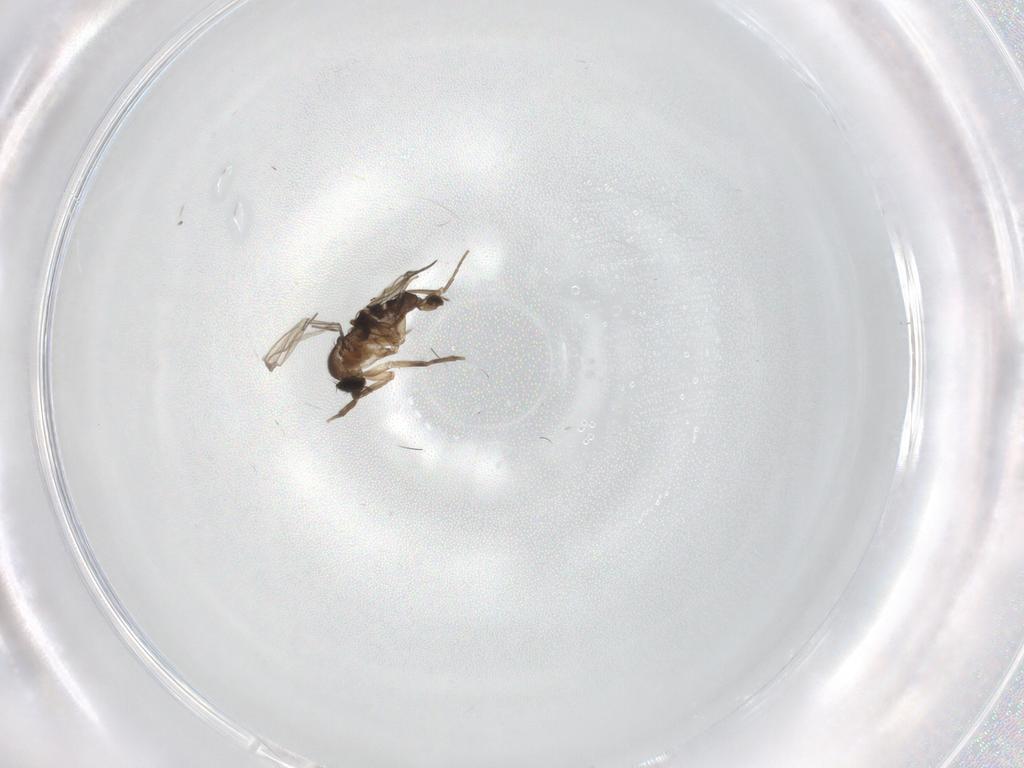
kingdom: Animalia
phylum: Arthropoda
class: Insecta
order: Diptera
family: Phoridae
